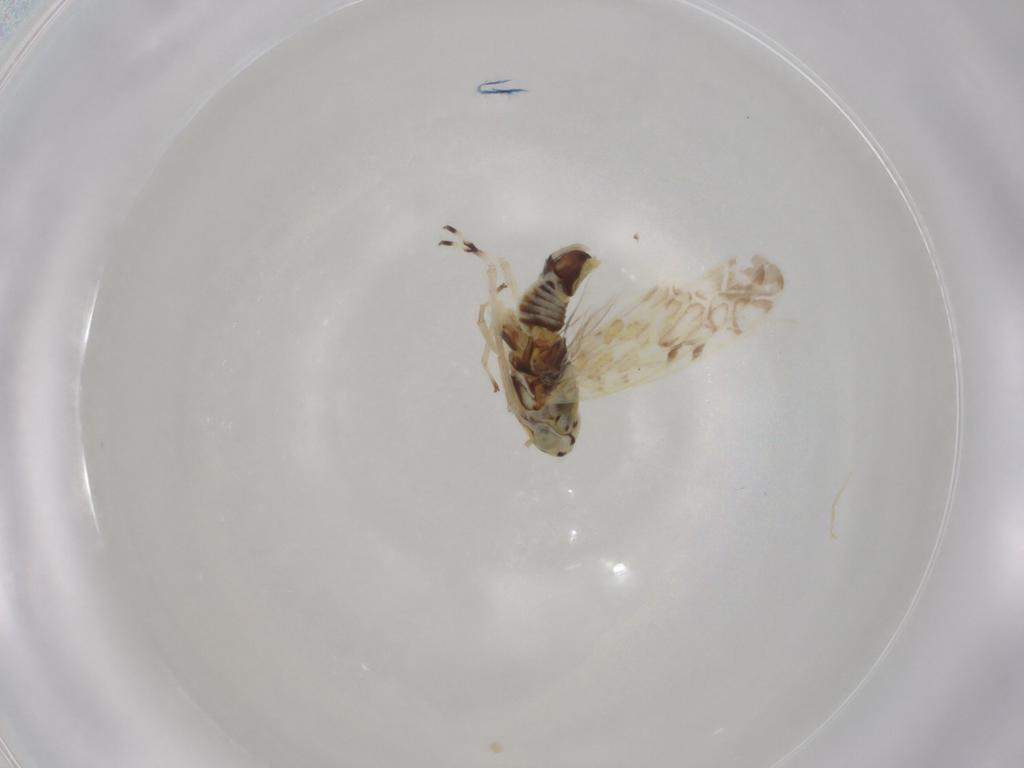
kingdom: Animalia
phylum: Arthropoda
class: Insecta
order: Hemiptera
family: Cicadellidae
